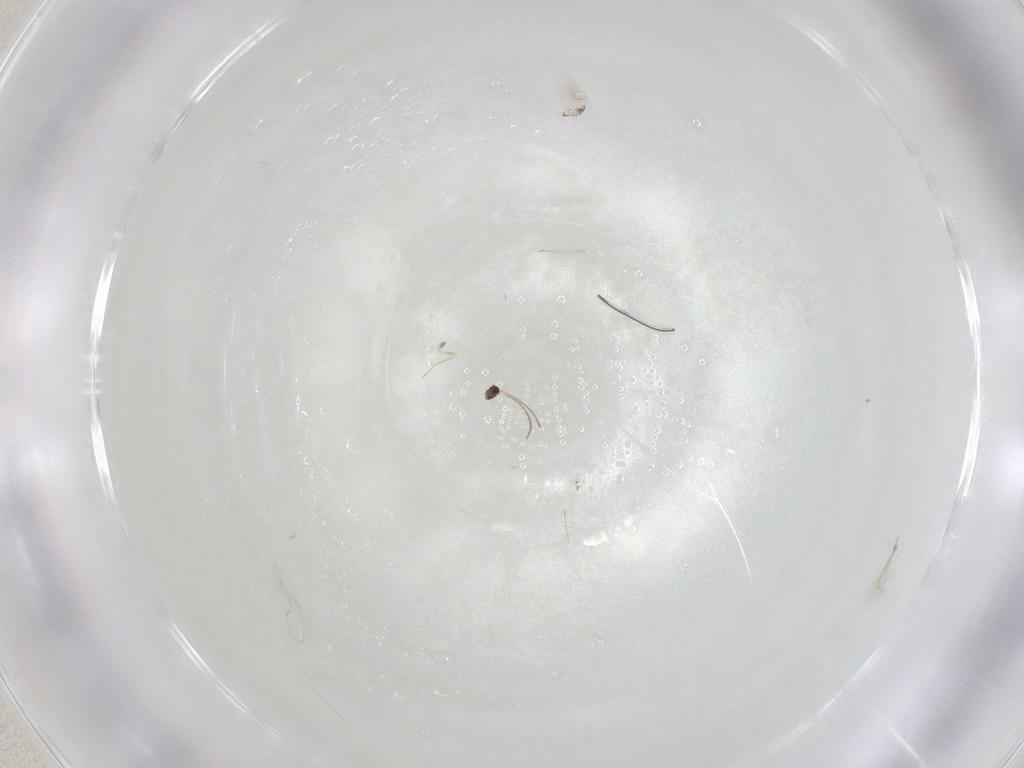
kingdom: Animalia
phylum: Arthropoda
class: Insecta
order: Hymenoptera
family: Mymaridae
